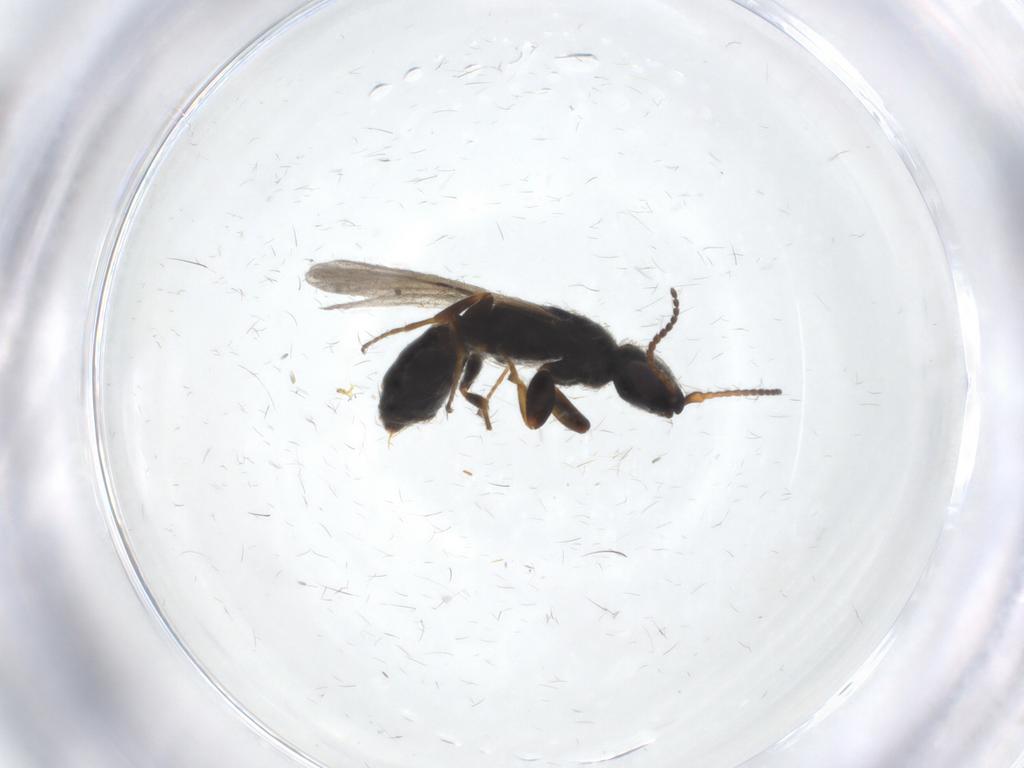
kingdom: Animalia
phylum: Arthropoda
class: Insecta
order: Hymenoptera
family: Bethylidae
